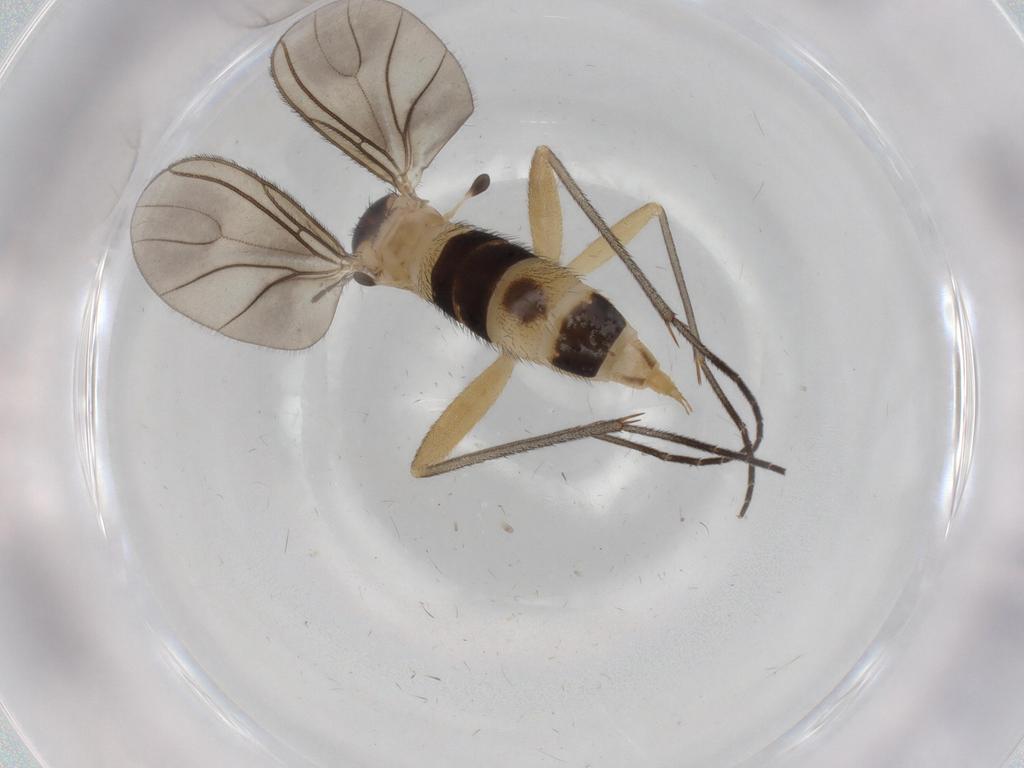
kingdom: Animalia
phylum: Arthropoda
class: Insecta
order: Diptera
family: Sciaridae
